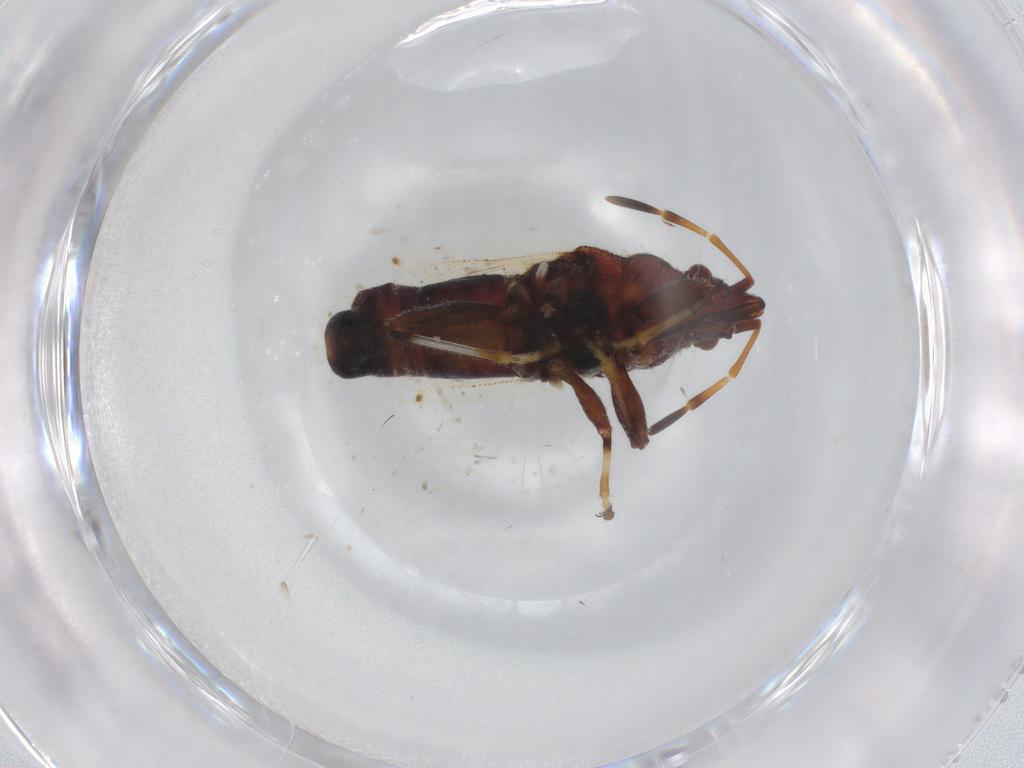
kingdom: Animalia
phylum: Arthropoda
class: Insecta
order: Hemiptera
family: Oxycarenidae
